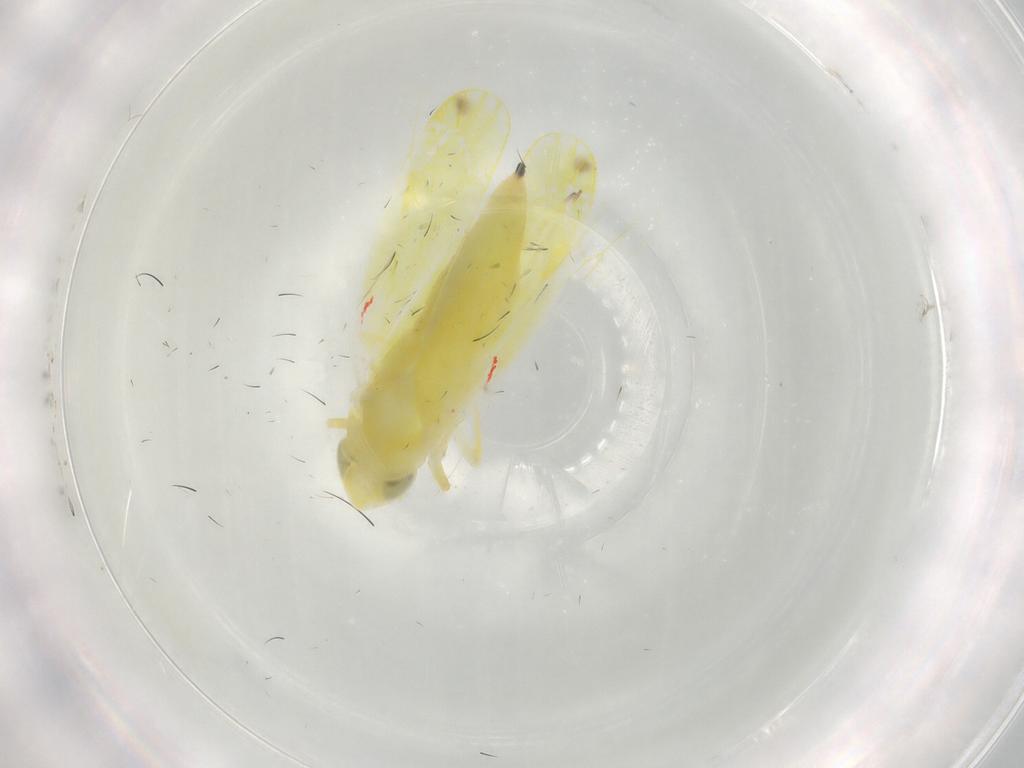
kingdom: Animalia
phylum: Arthropoda
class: Insecta
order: Hemiptera
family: Cicadellidae
